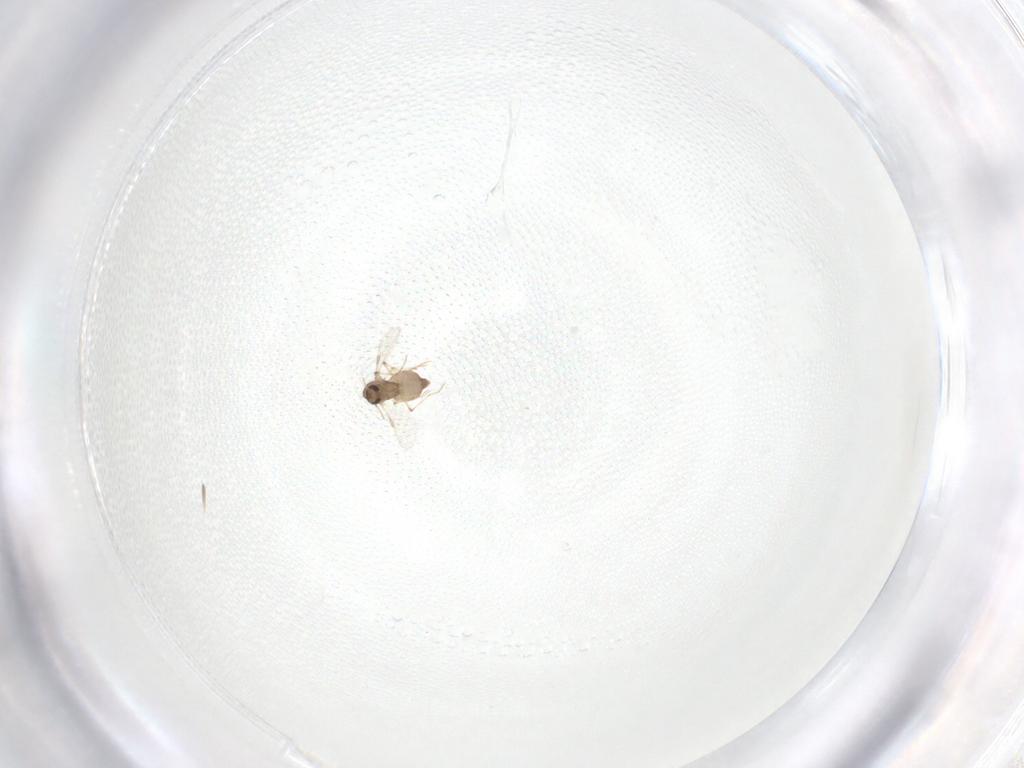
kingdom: Animalia
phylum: Arthropoda
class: Insecta
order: Diptera
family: Chironomidae
